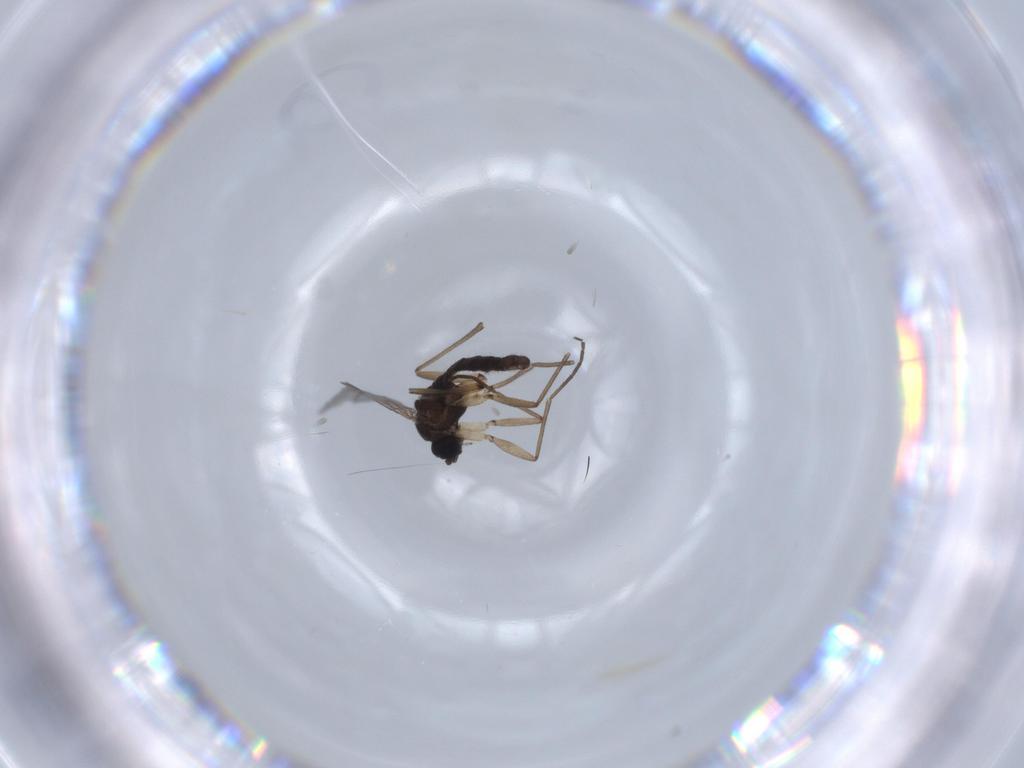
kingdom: Animalia
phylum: Arthropoda
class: Insecta
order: Diptera
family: Sciaridae
